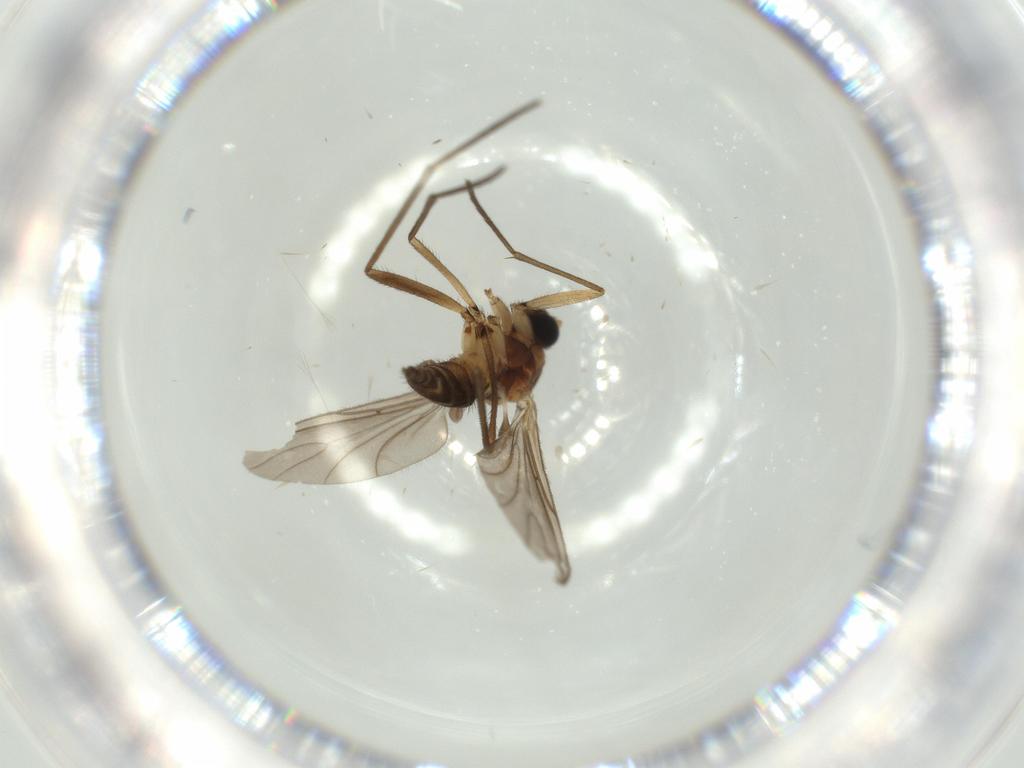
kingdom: Animalia
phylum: Arthropoda
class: Insecta
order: Diptera
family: Sciaridae
